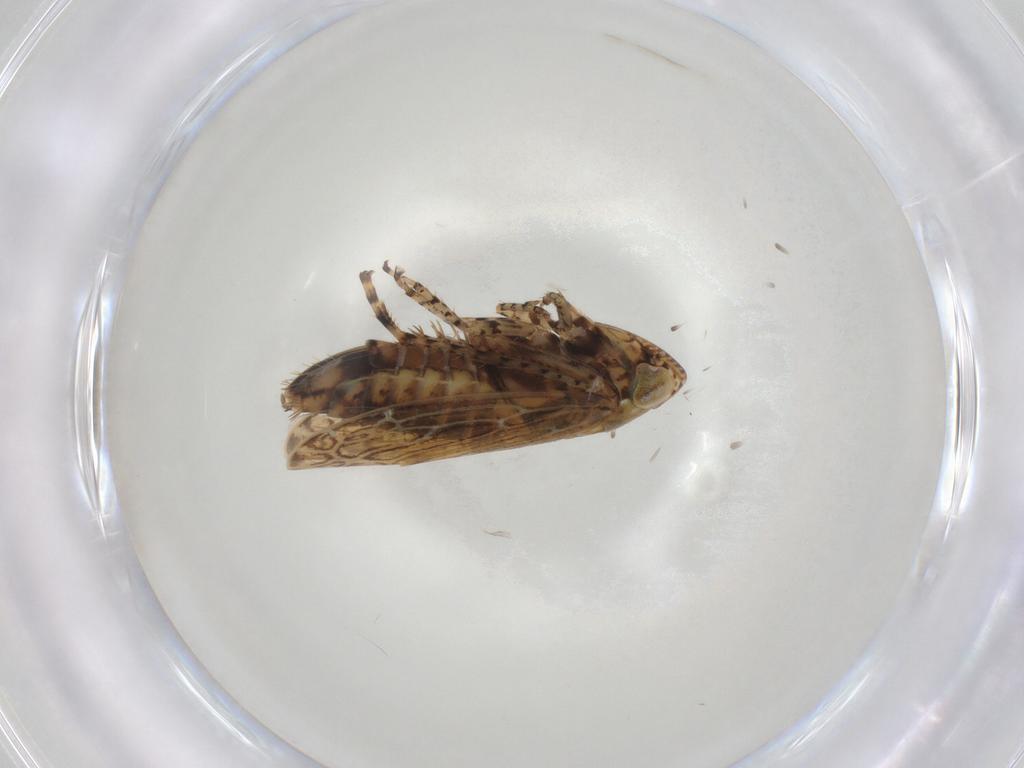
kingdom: Animalia
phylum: Arthropoda
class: Insecta
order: Hemiptera
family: Cicadellidae
